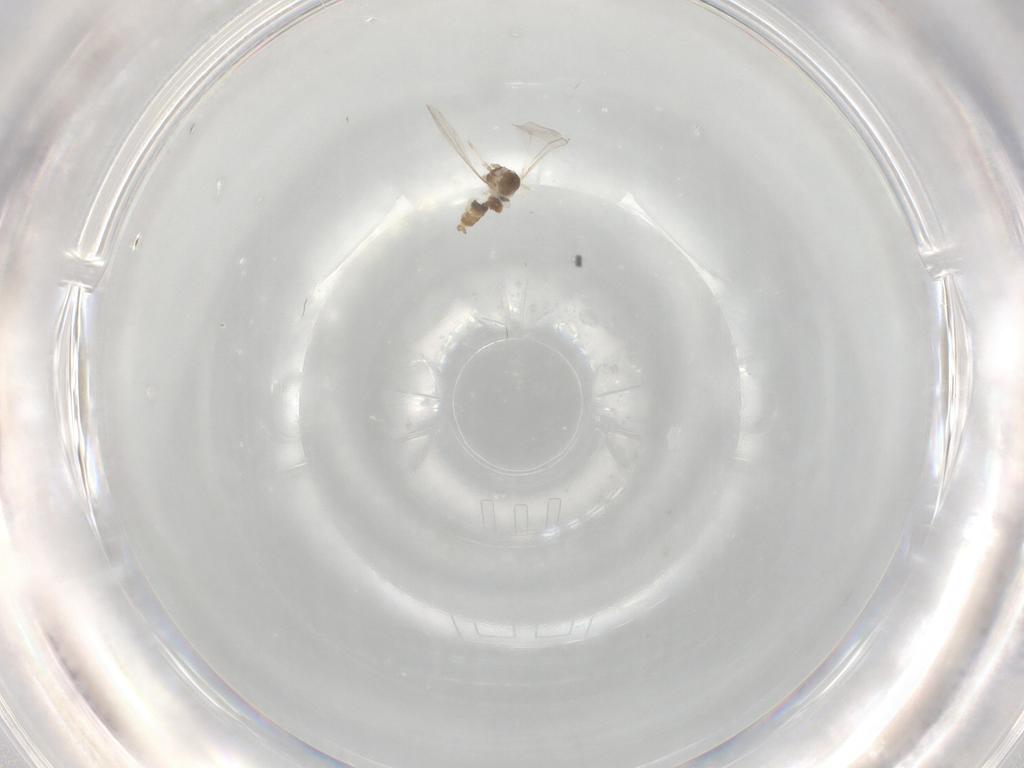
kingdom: Animalia
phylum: Arthropoda
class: Insecta
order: Diptera
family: Cecidomyiidae
